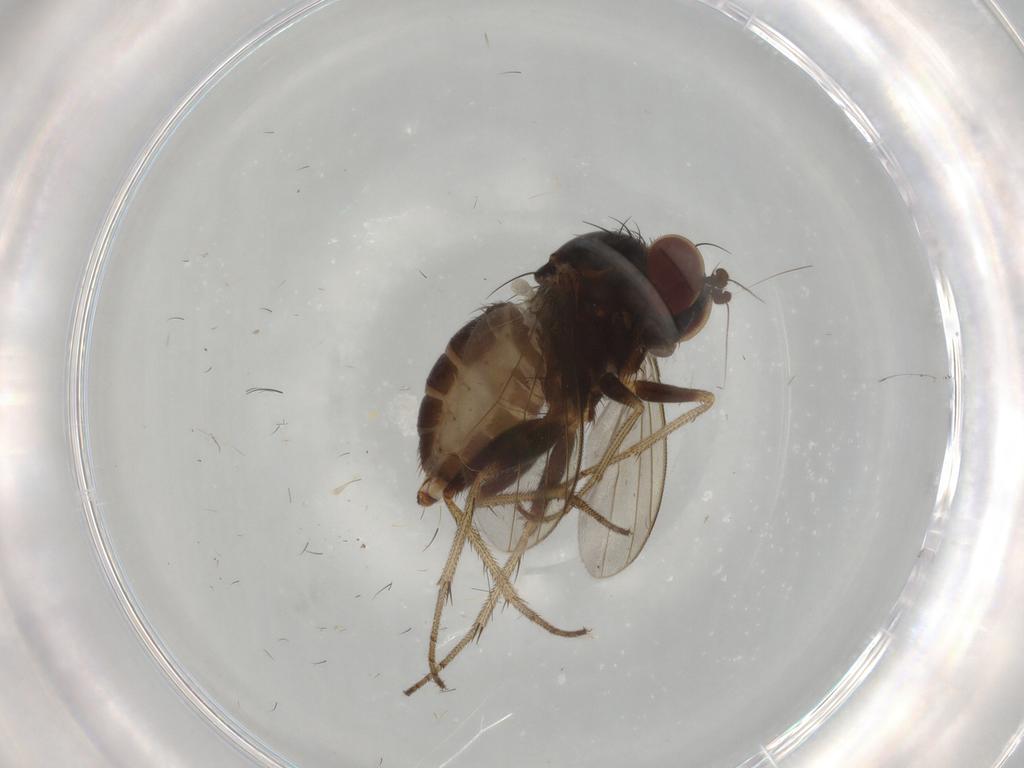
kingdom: Animalia
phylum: Arthropoda
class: Insecta
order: Diptera
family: Dolichopodidae
